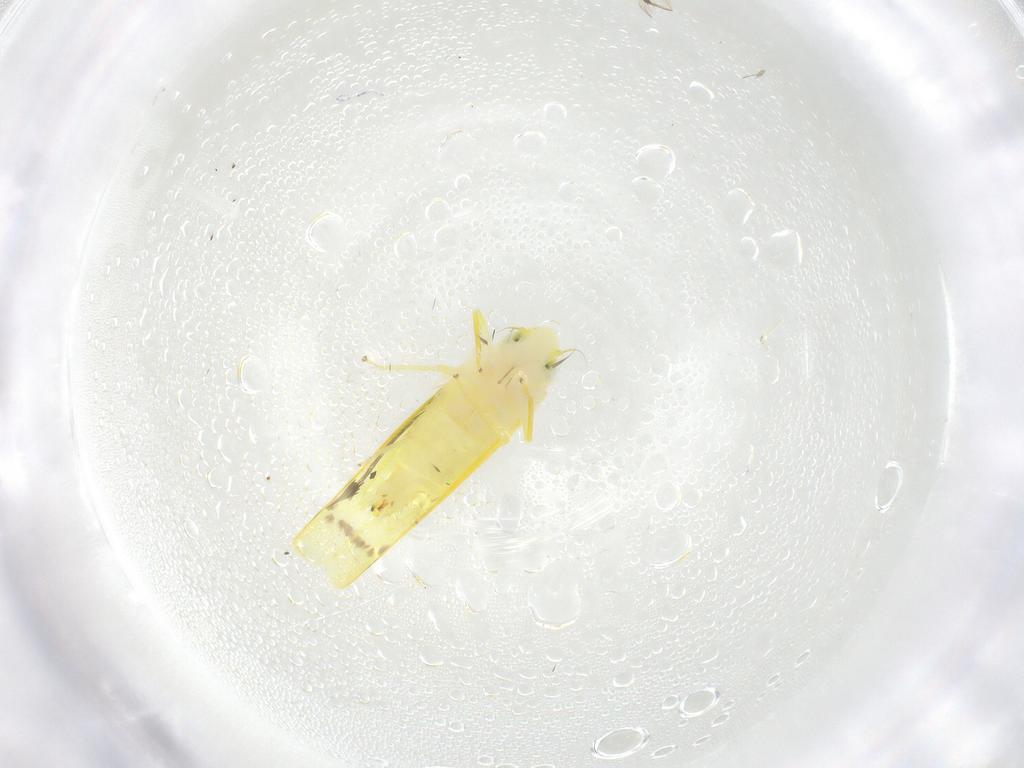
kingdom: Animalia
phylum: Arthropoda
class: Insecta
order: Hemiptera
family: Cicadellidae
